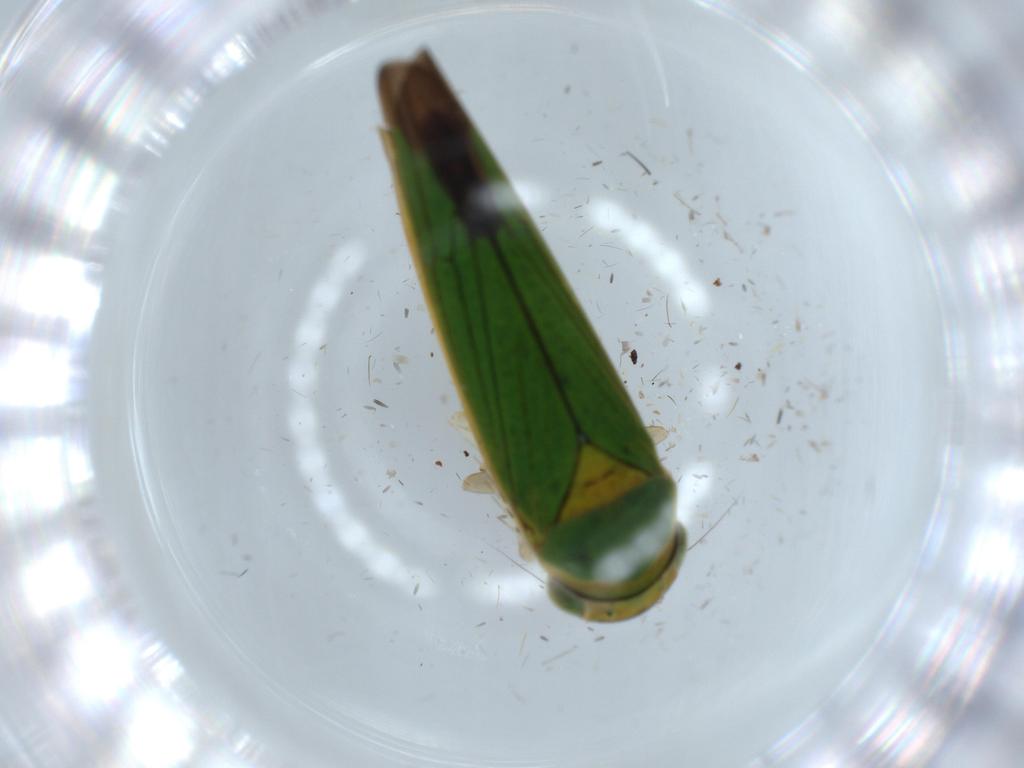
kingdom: Animalia
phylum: Arthropoda
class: Insecta
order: Hemiptera
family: Cicadellidae
